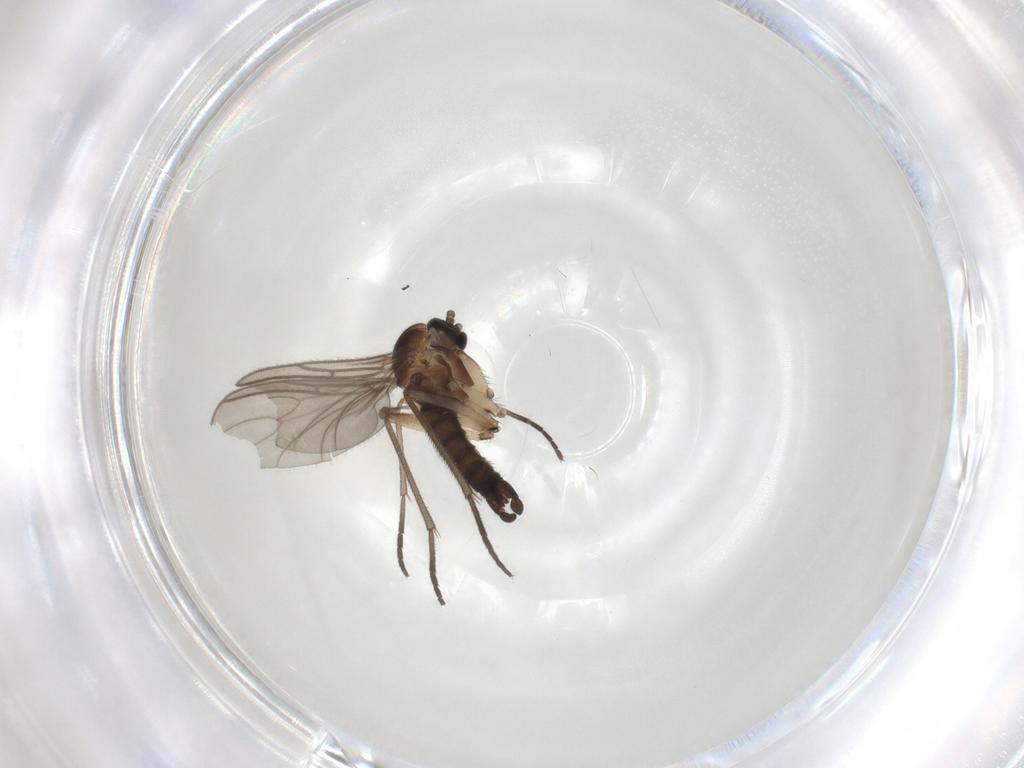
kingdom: Animalia
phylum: Arthropoda
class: Insecta
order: Diptera
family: Sciaridae
